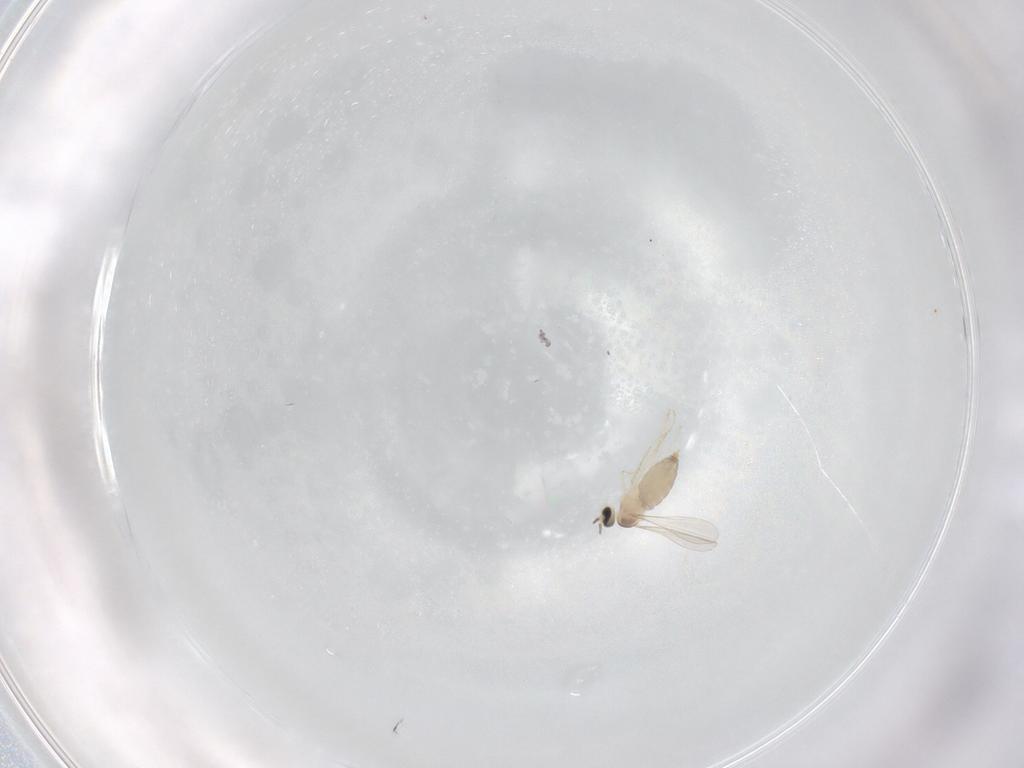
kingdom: Animalia
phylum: Arthropoda
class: Insecta
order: Diptera
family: Cecidomyiidae
